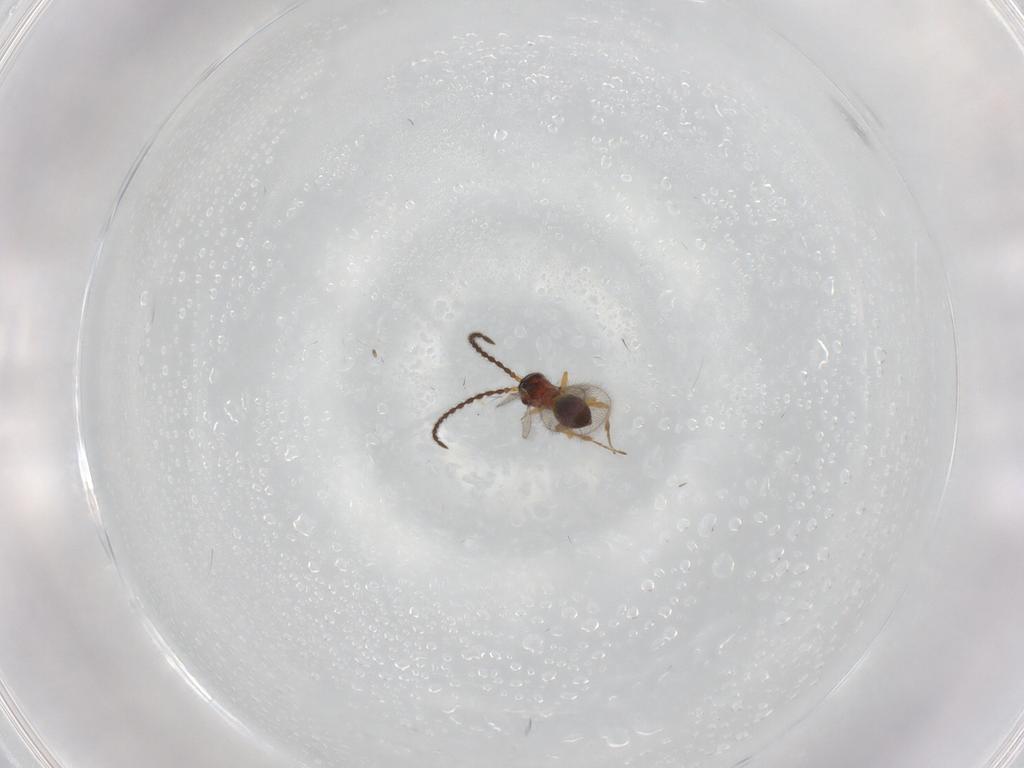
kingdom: Animalia
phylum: Arthropoda
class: Insecta
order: Hymenoptera
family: Diapriidae
